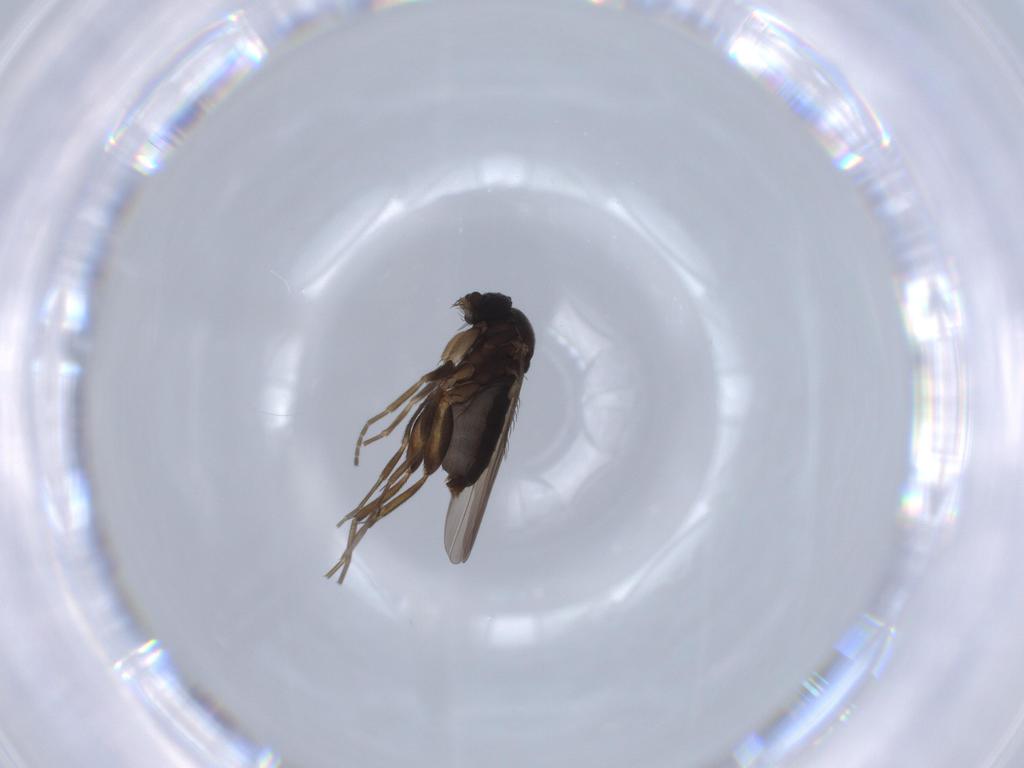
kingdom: Animalia
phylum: Arthropoda
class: Insecta
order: Diptera
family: Phoridae
